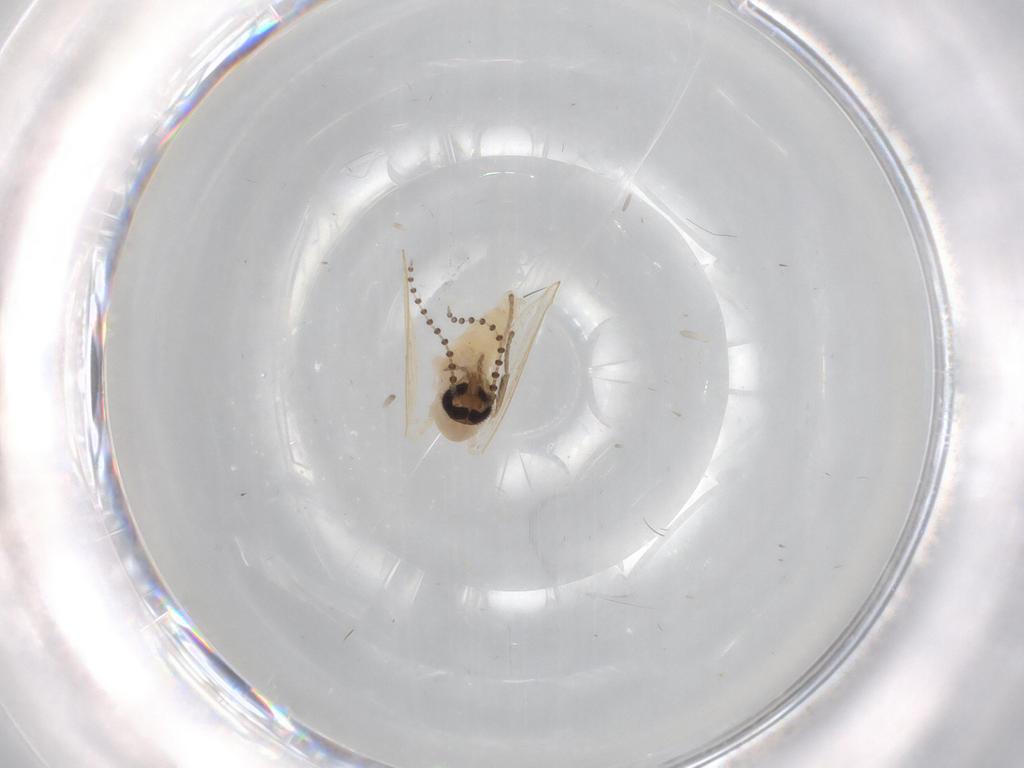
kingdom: Animalia
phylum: Arthropoda
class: Insecta
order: Diptera
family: Psychodidae
